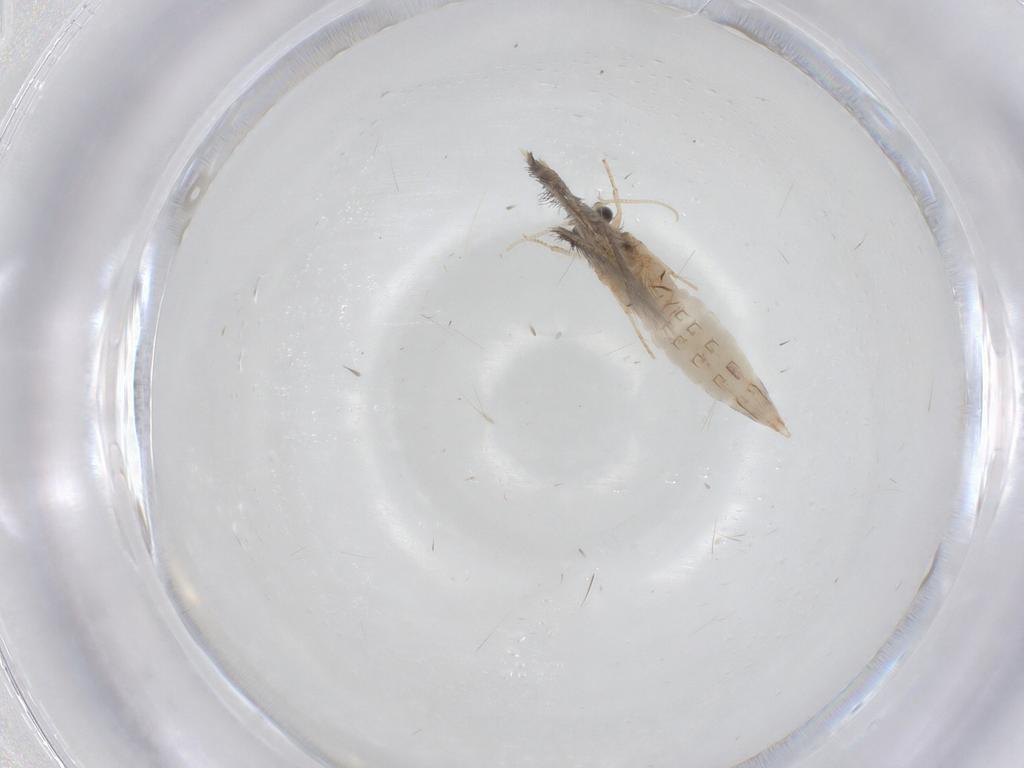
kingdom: Animalia
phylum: Arthropoda
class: Insecta
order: Trichoptera
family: Hydroptilidae
